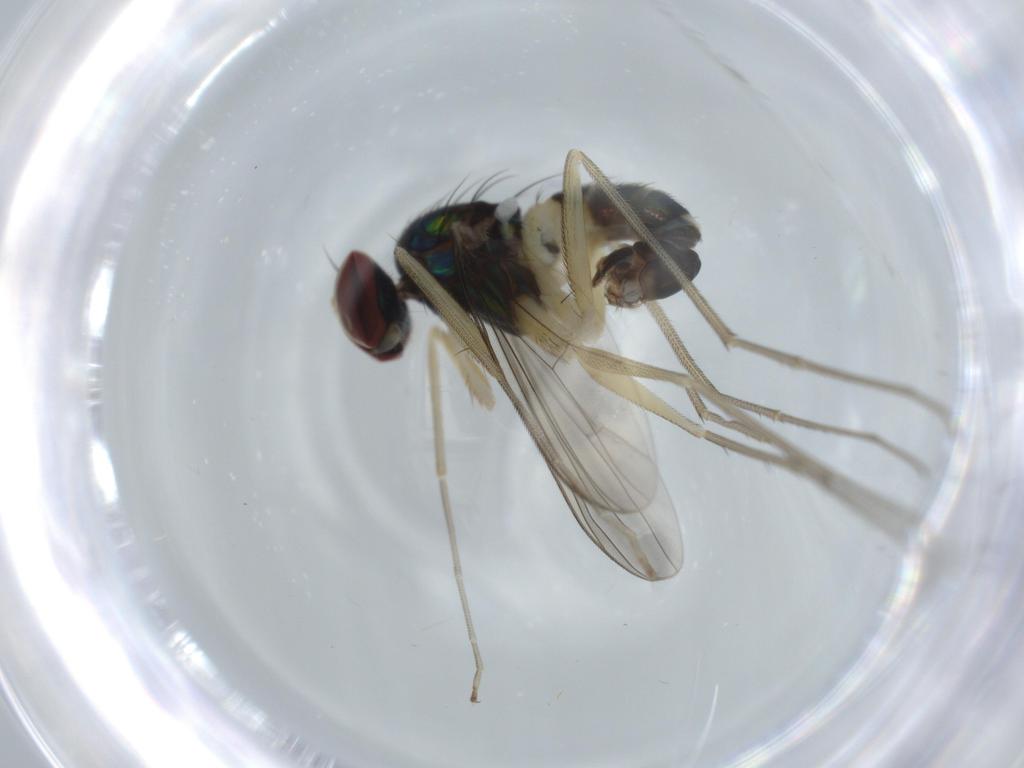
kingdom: Animalia
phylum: Arthropoda
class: Insecta
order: Diptera
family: Dolichopodidae
